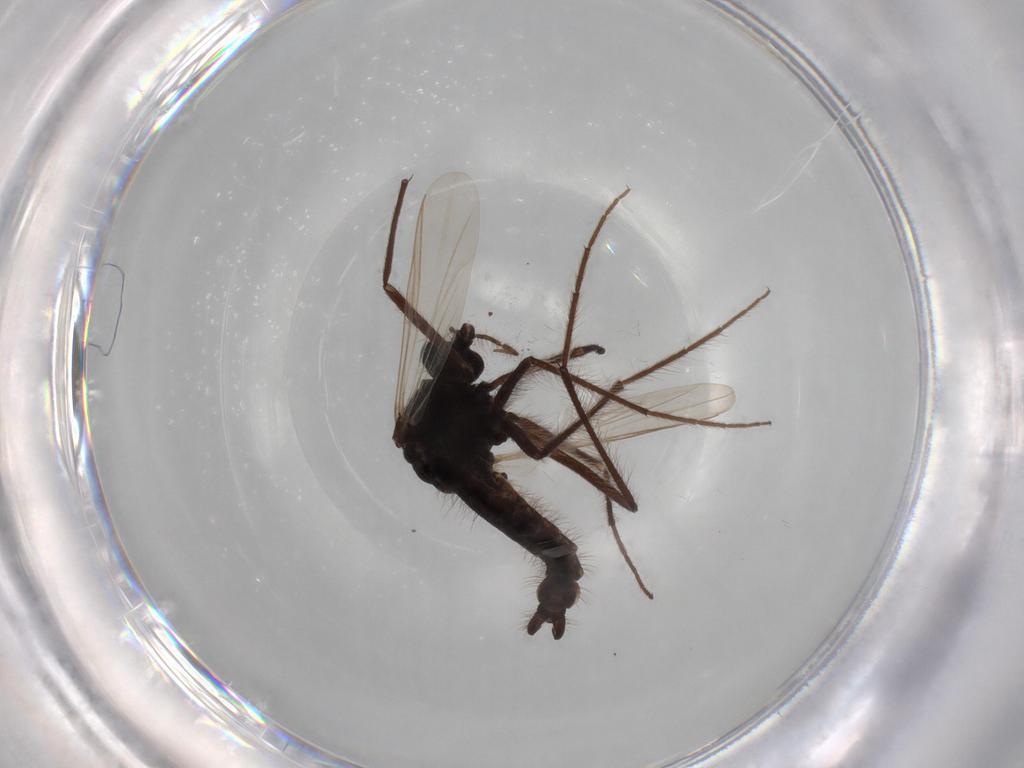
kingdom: Animalia
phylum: Arthropoda
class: Insecta
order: Diptera
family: Sepsidae
